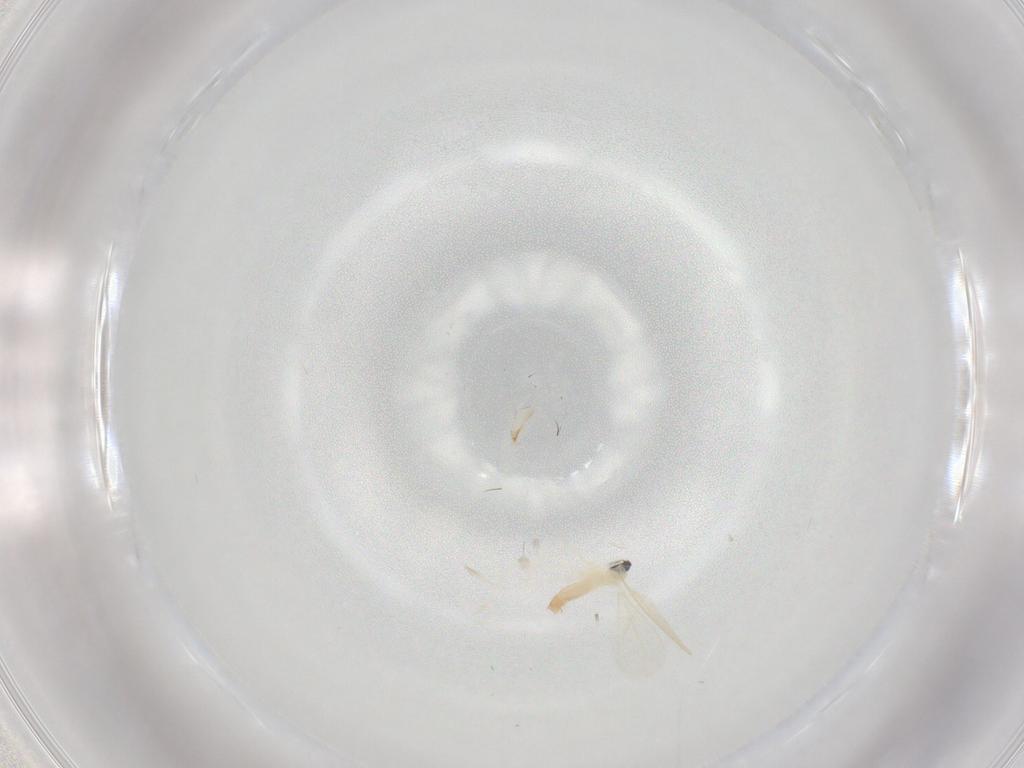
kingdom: Animalia
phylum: Arthropoda
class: Insecta
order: Diptera
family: Cecidomyiidae
